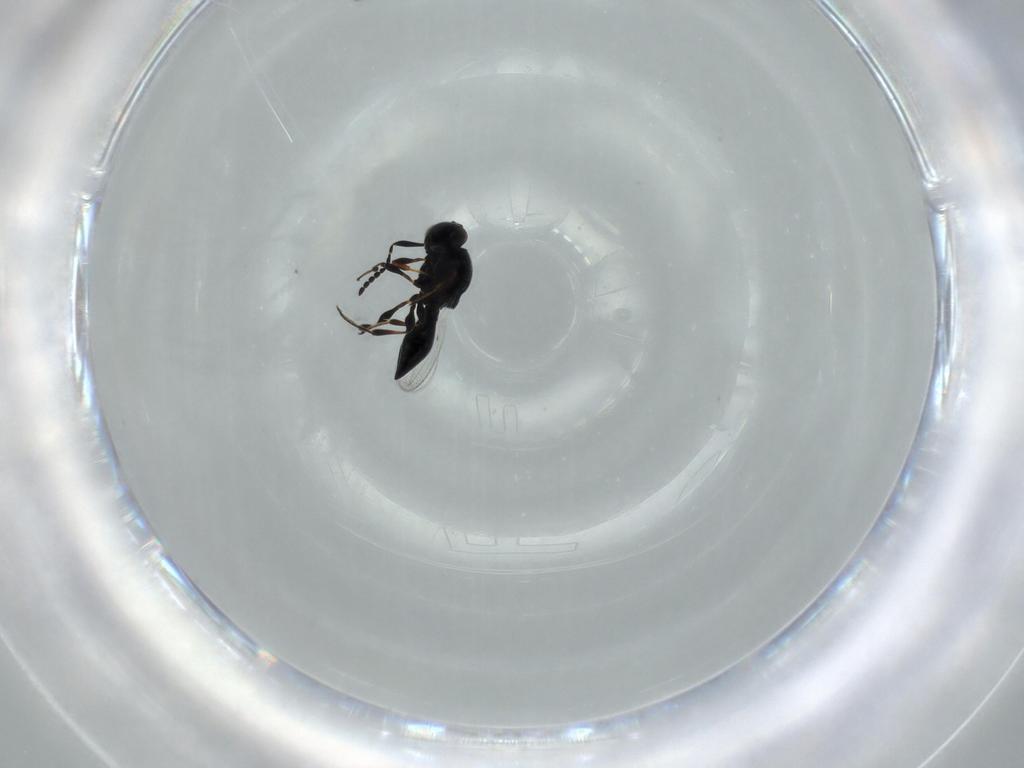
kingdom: Animalia
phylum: Arthropoda
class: Insecta
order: Hymenoptera
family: Platygastridae
